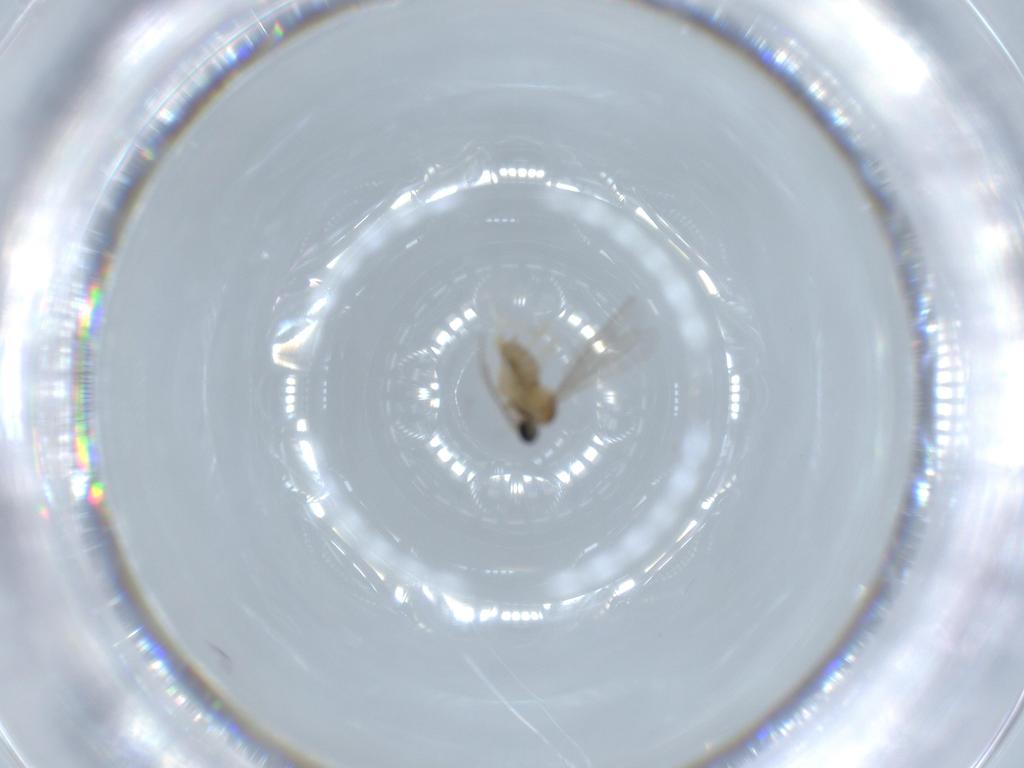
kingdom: Animalia
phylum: Arthropoda
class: Insecta
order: Diptera
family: Cecidomyiidae
